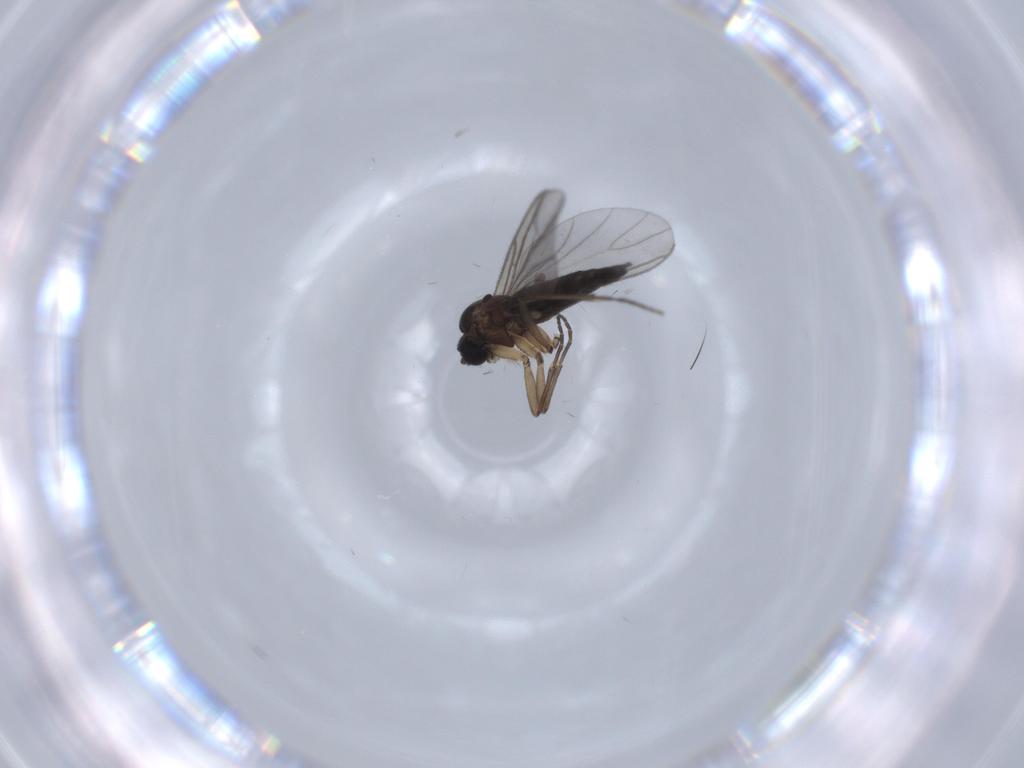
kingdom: Animalia
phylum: Arthropoda
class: Insecta
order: Diptera
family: Sciaridae
